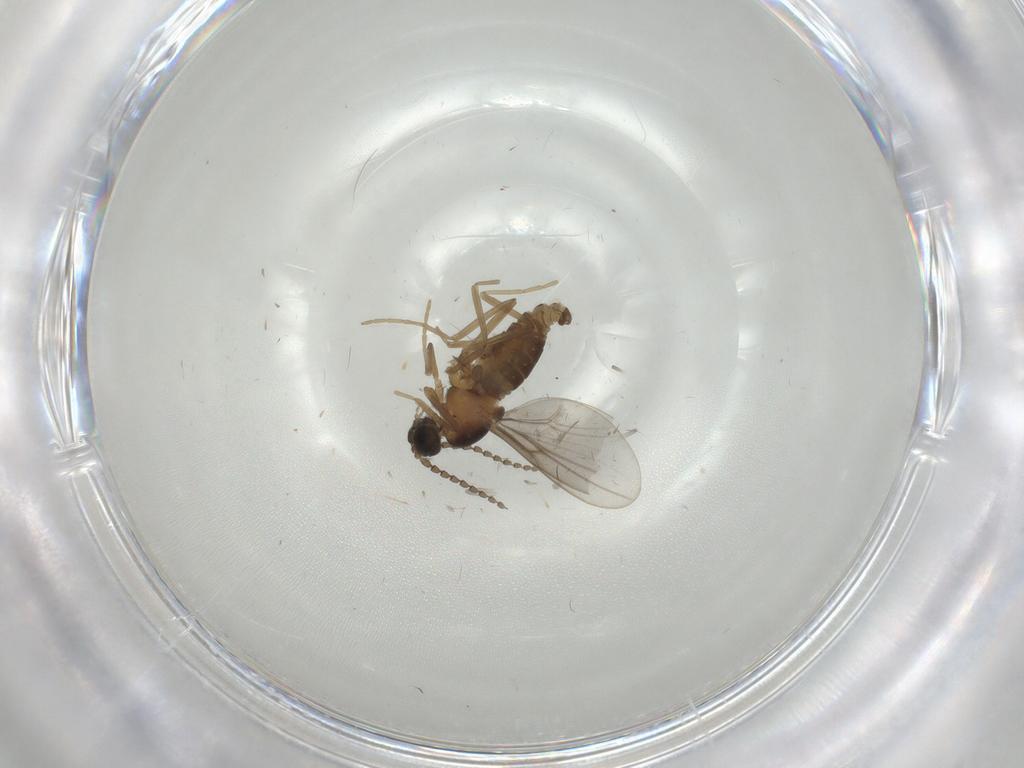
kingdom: Animalia
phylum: Arthropoda
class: Insecta
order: Diptera
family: Cecidomyiidae
